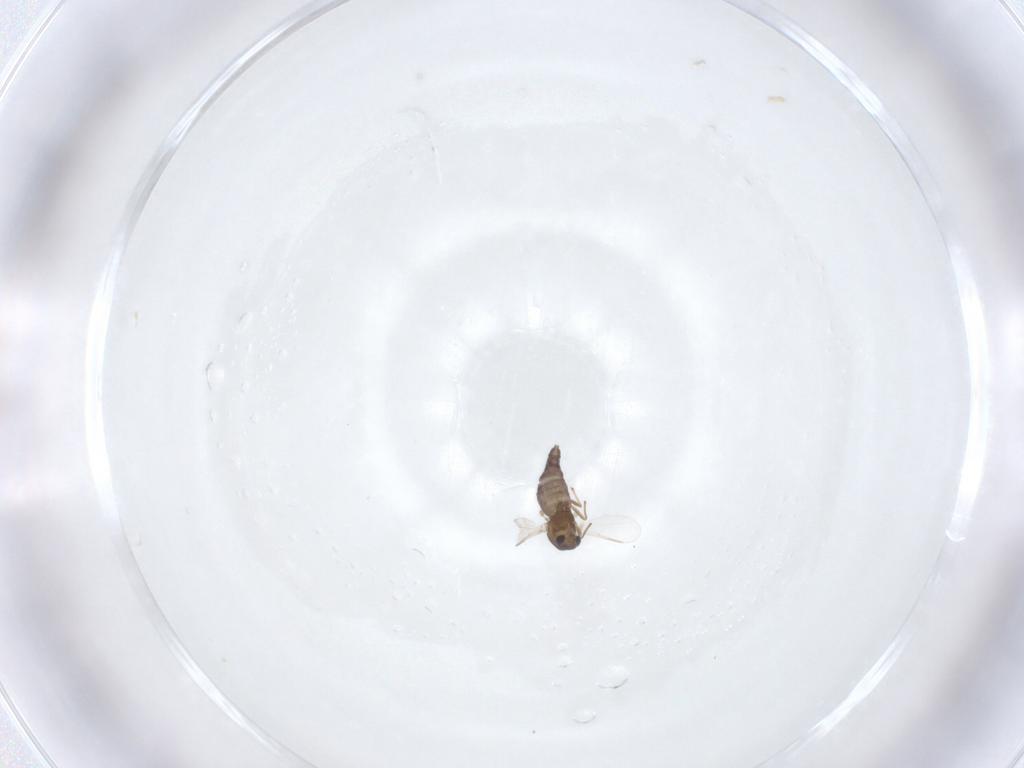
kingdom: Animalia
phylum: Arthropoda
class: Insecta
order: Diptera
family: Chironomidae
